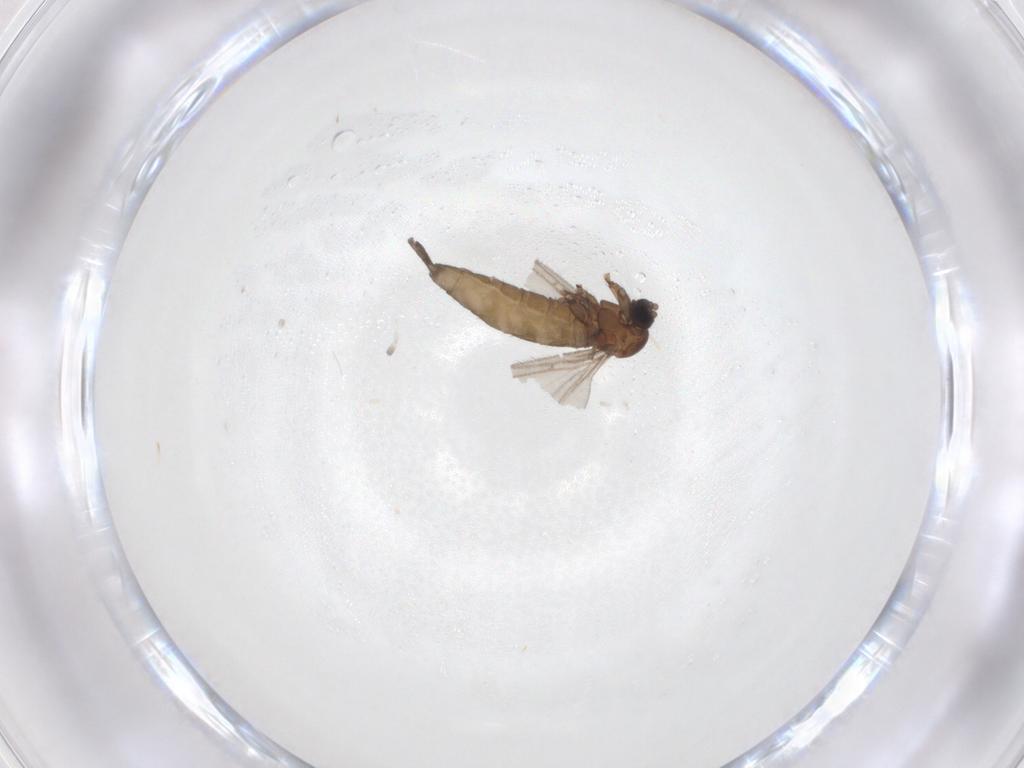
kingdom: Animalia
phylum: Arthropoda
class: Insecta
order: Diptera
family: Sciaridae
